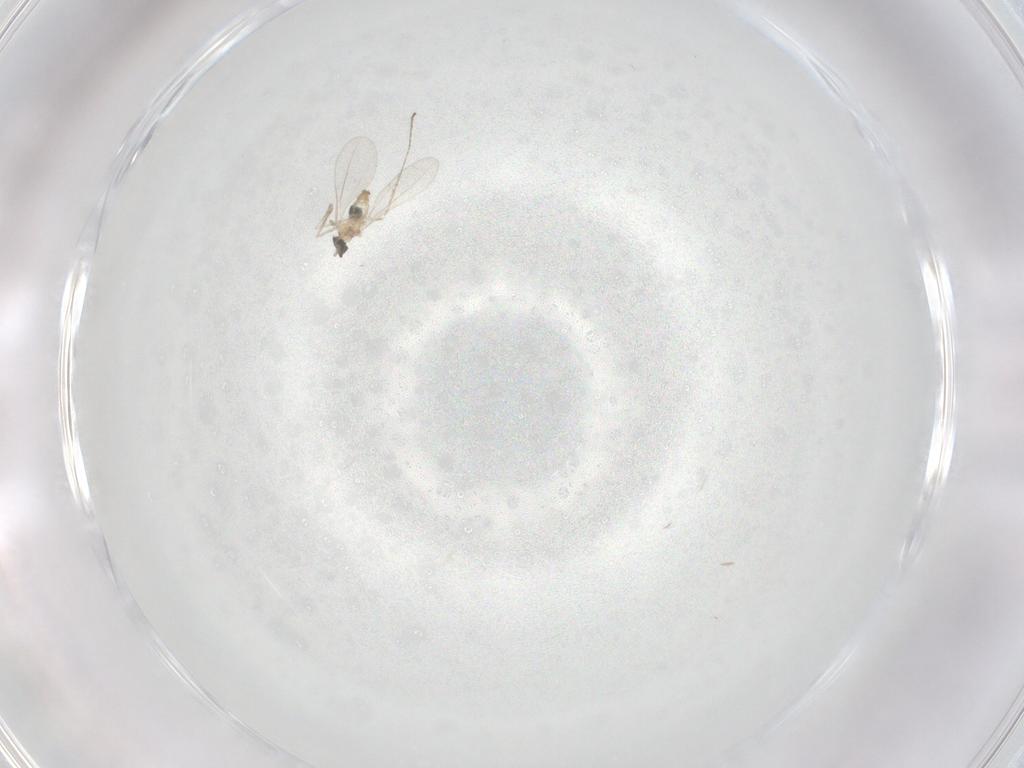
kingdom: Animalia
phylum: Arthropoda
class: Insecta
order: Diptera
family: Cecidomyiidae
